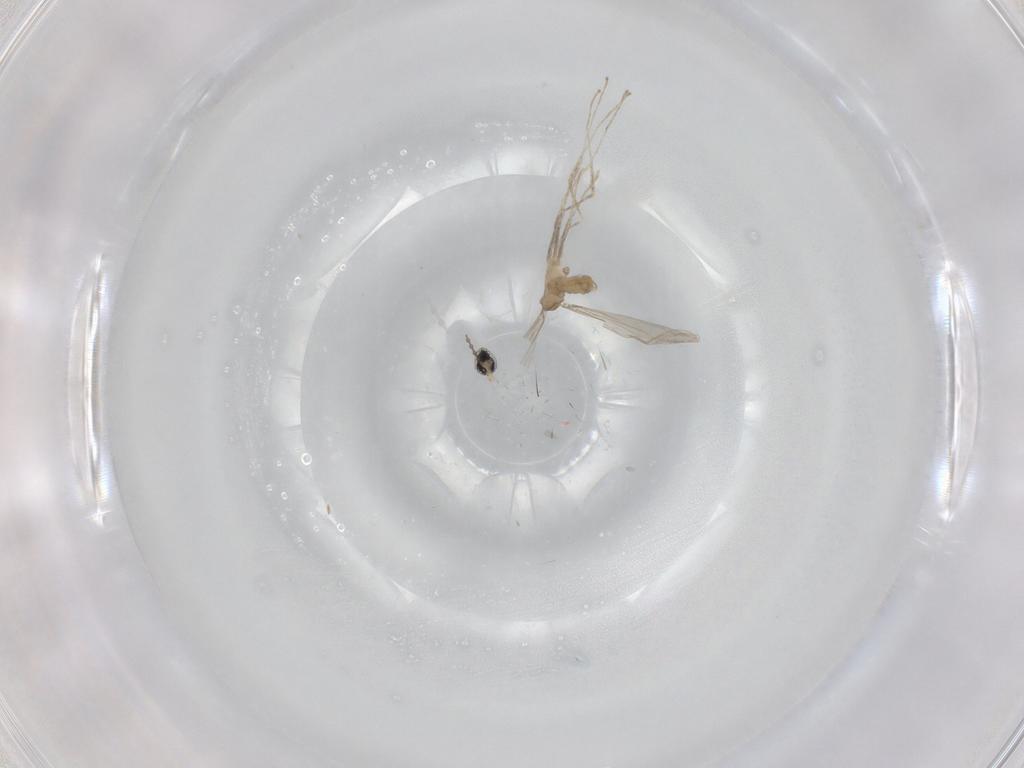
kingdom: Animalia
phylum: Arthropoda
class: Insecta
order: Diptera
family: Cecidomyiidae
